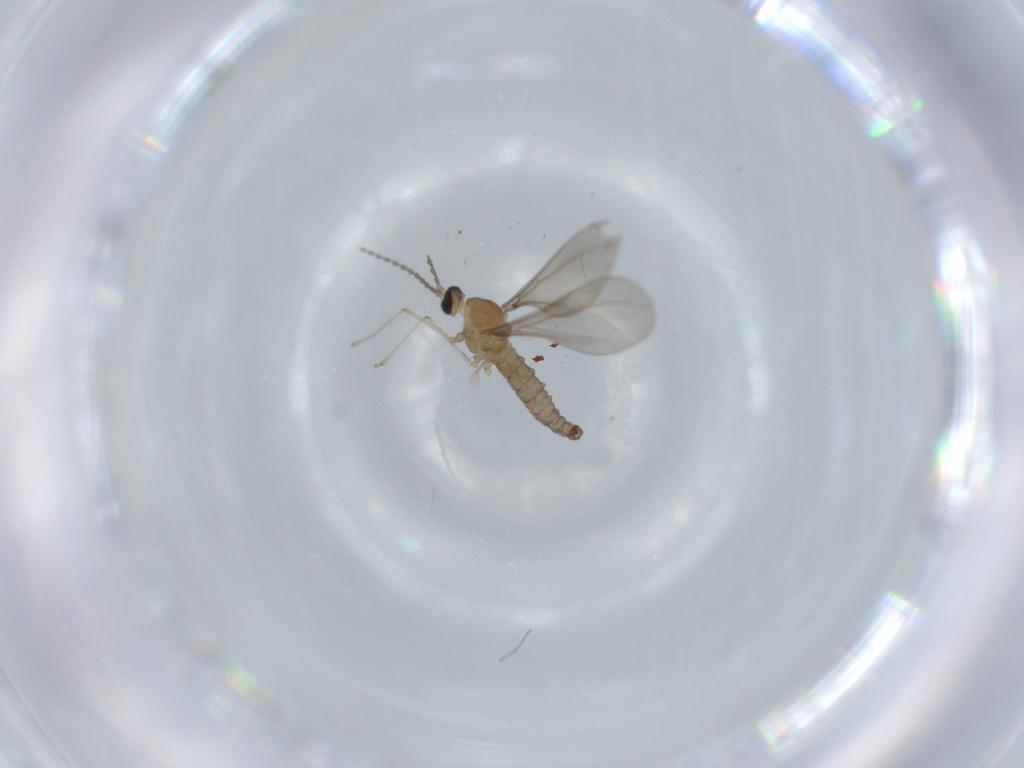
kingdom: Animalia
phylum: Arthropoda
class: Insecta
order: Diptera
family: Sphaeroceridae
